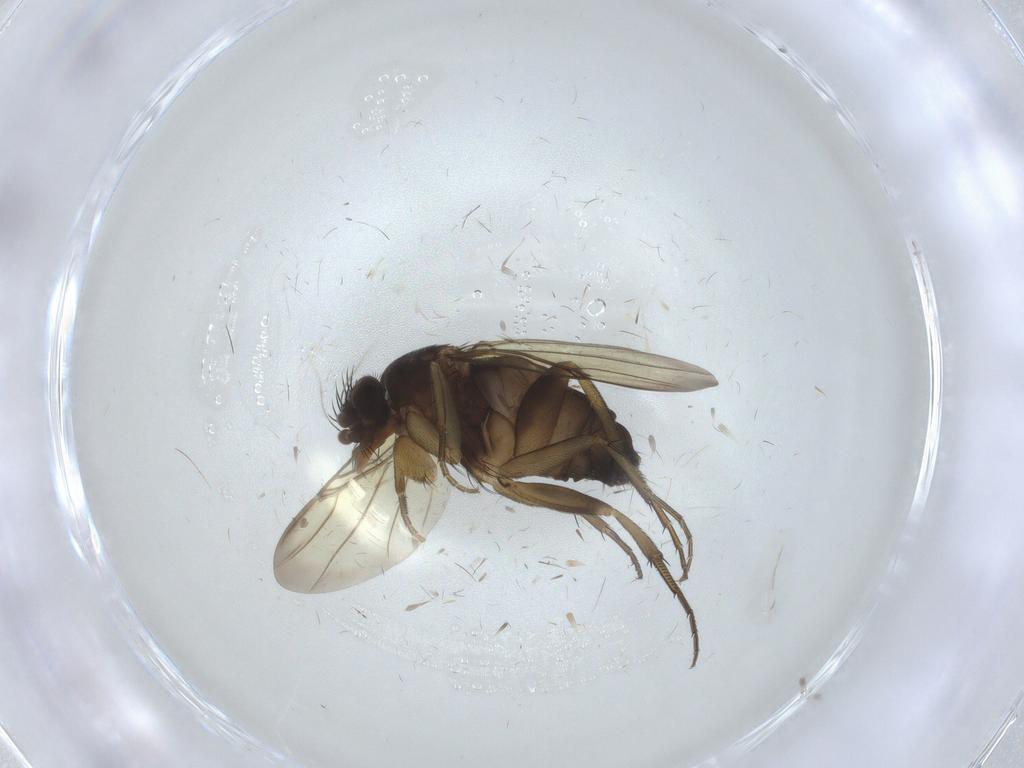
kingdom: Animalia
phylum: Arthropoda
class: Insecta
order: Diptera
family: Phoridae
